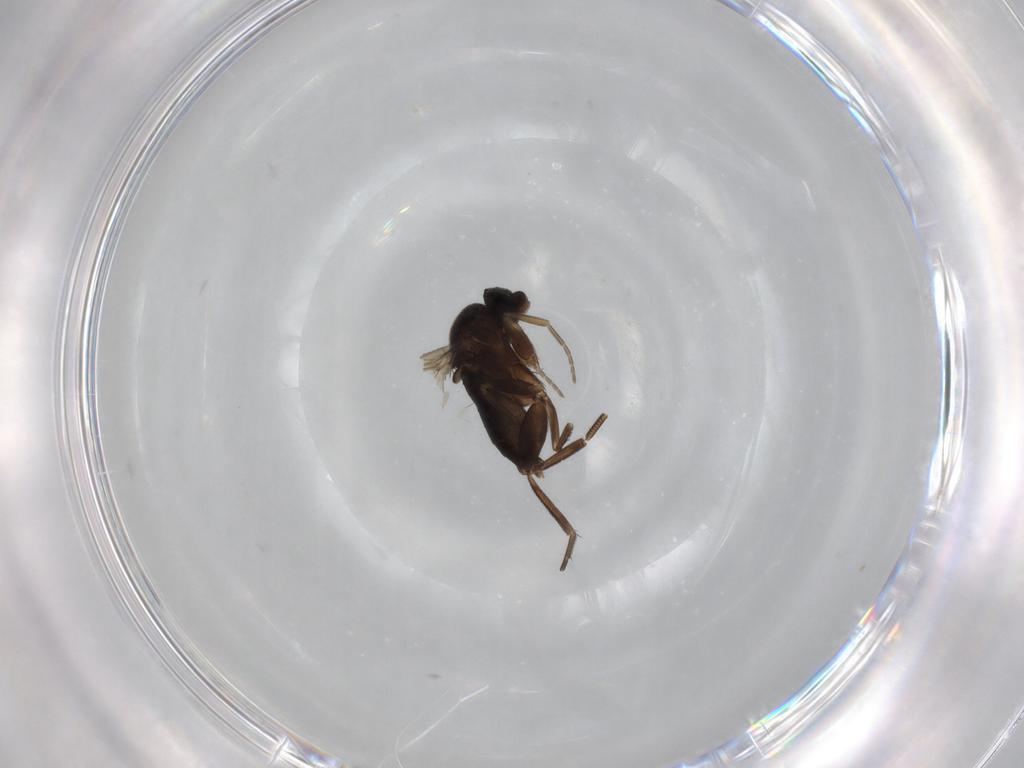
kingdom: Animalia
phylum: Arthropoda
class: Insecta
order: Diptera
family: Phoridae
